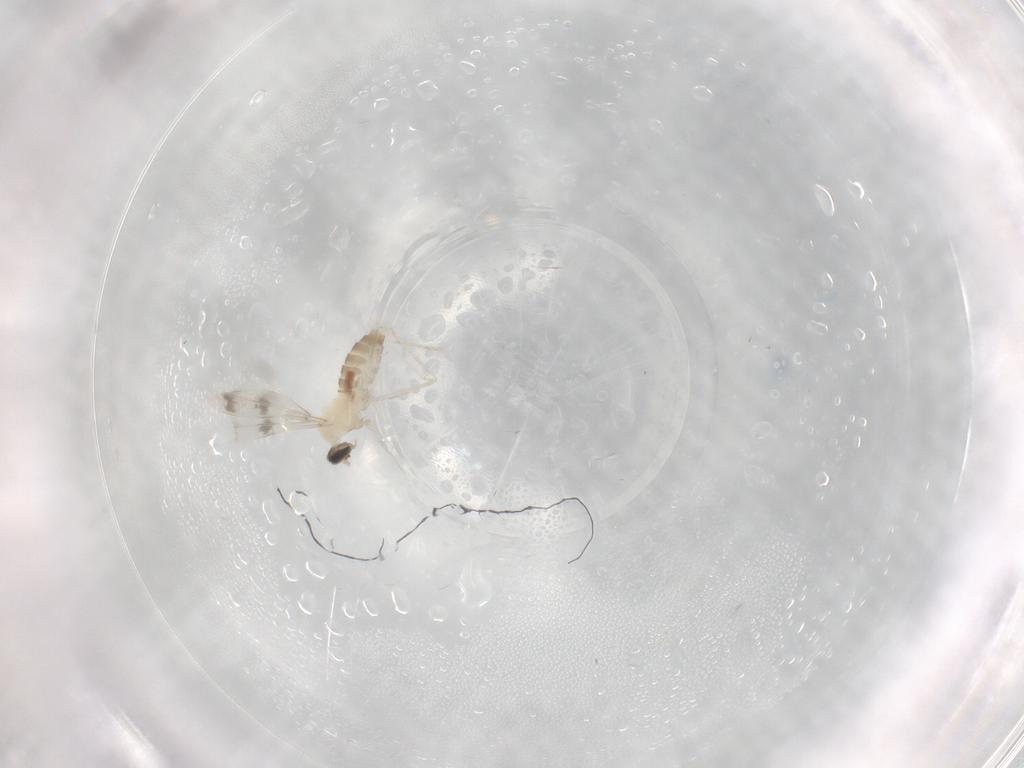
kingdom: Animalia
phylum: Arthropoda
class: Insecta
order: Diptera
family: Cecidomyiidae
